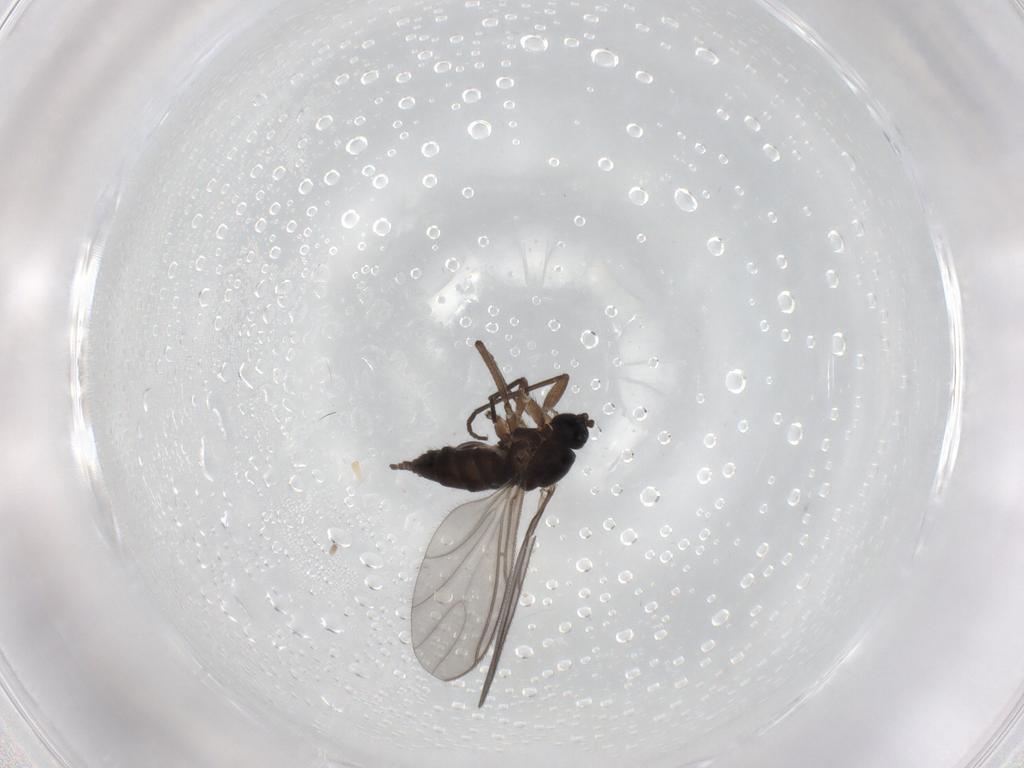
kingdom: Animalia
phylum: Arthropoda
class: Insecta
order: Diptera
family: Sciaridae
